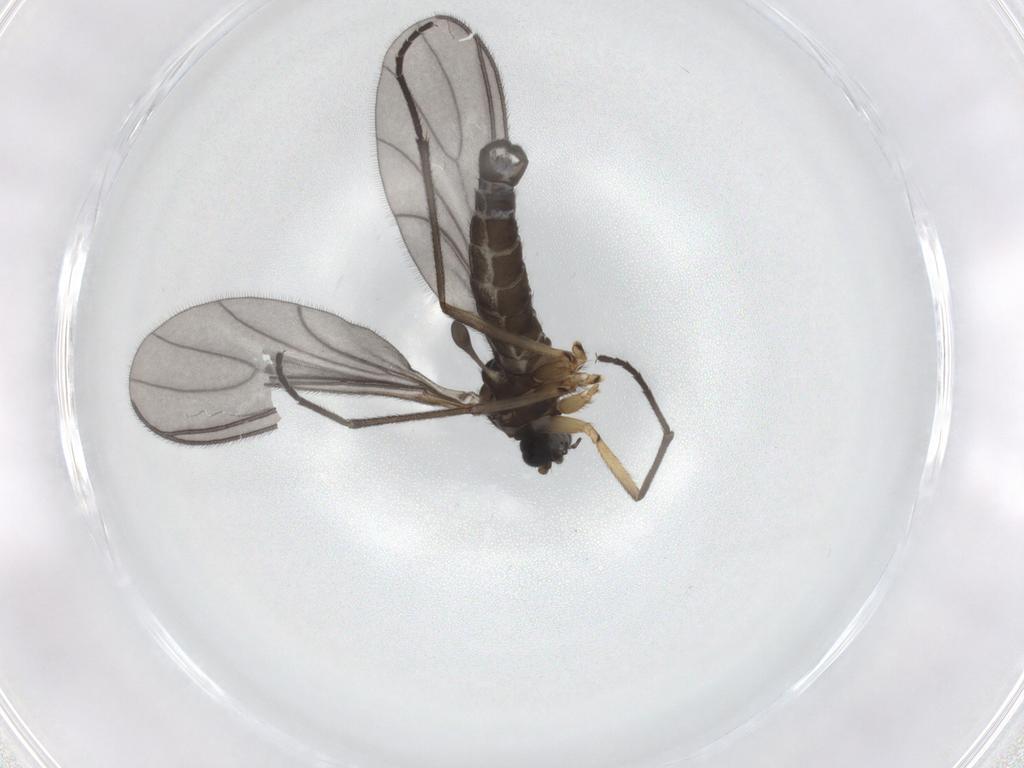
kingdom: Animalia
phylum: Arthropoda
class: Insecta
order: Diptera
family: Sciaridae
